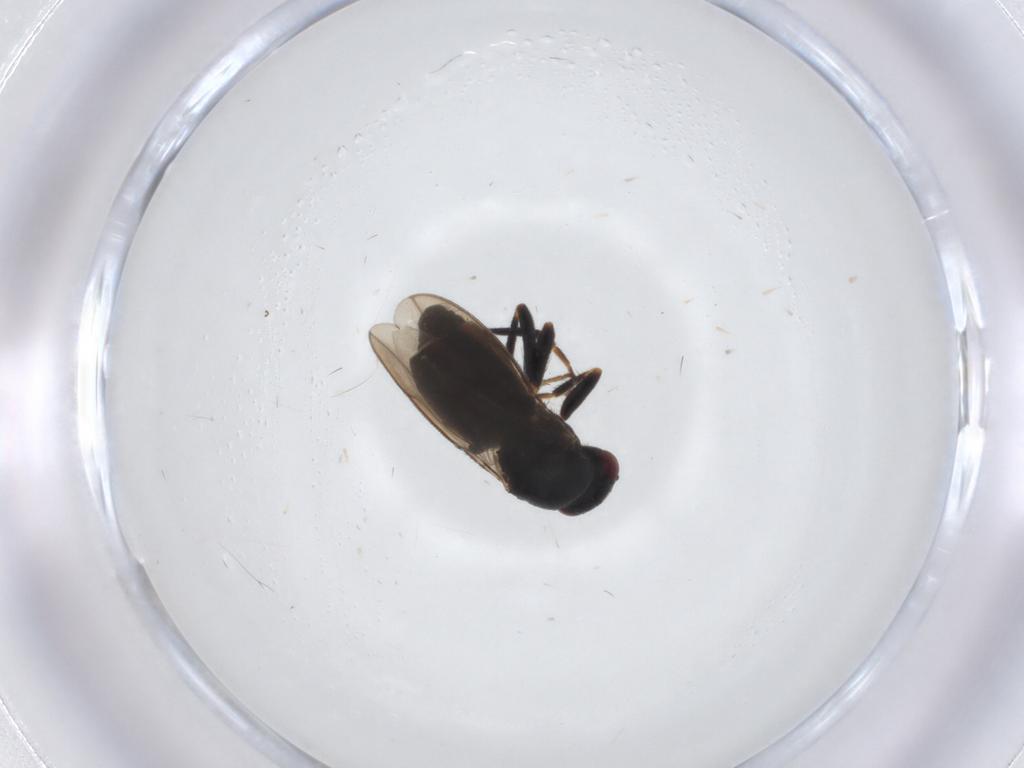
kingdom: Animalia
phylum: Arthropoda
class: Insecta
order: Diptera
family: Sphaeroceridae
